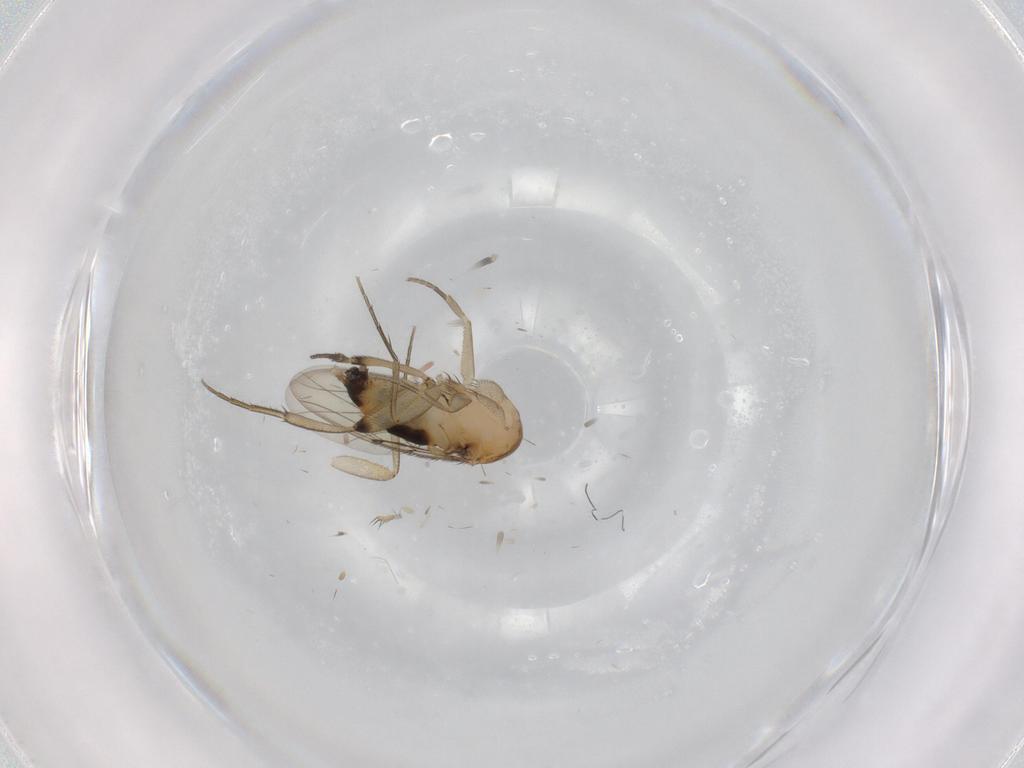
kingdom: Animalia
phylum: Arthropoda
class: Insecta
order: Diptera
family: Phoridae
